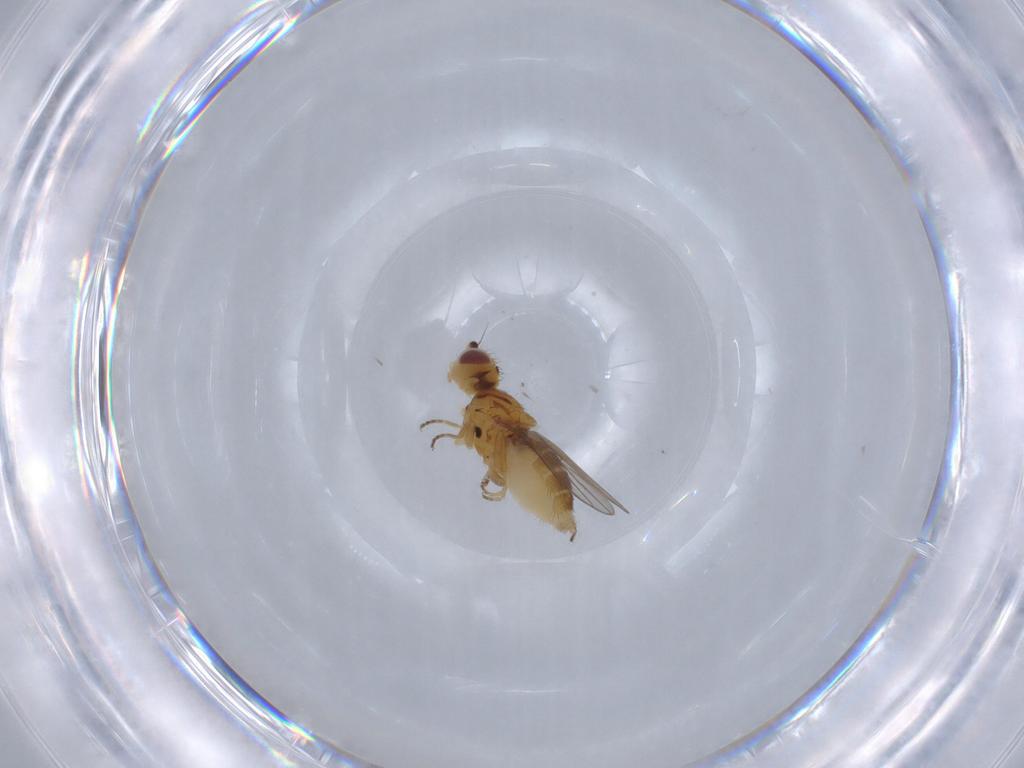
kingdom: Animalia
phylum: Arthropoda
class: Insecta
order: Diptera
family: Chloropidae
